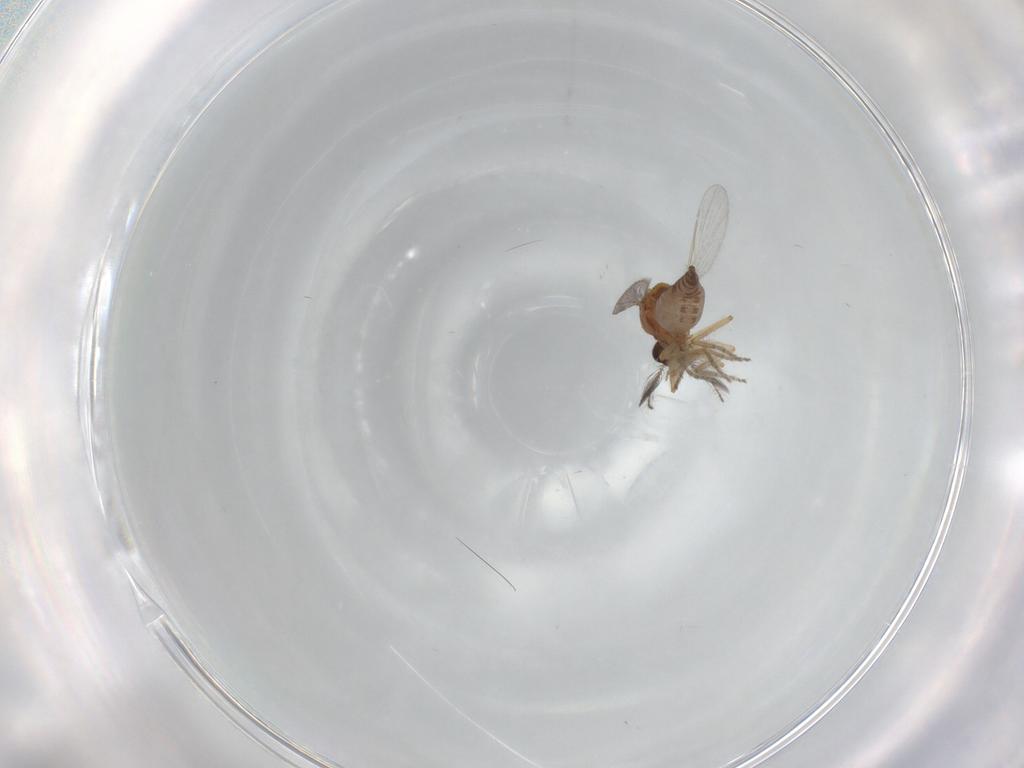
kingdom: Animalia
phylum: Arthropoda
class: Insecta
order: Diptera
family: Ceratopogonidae
